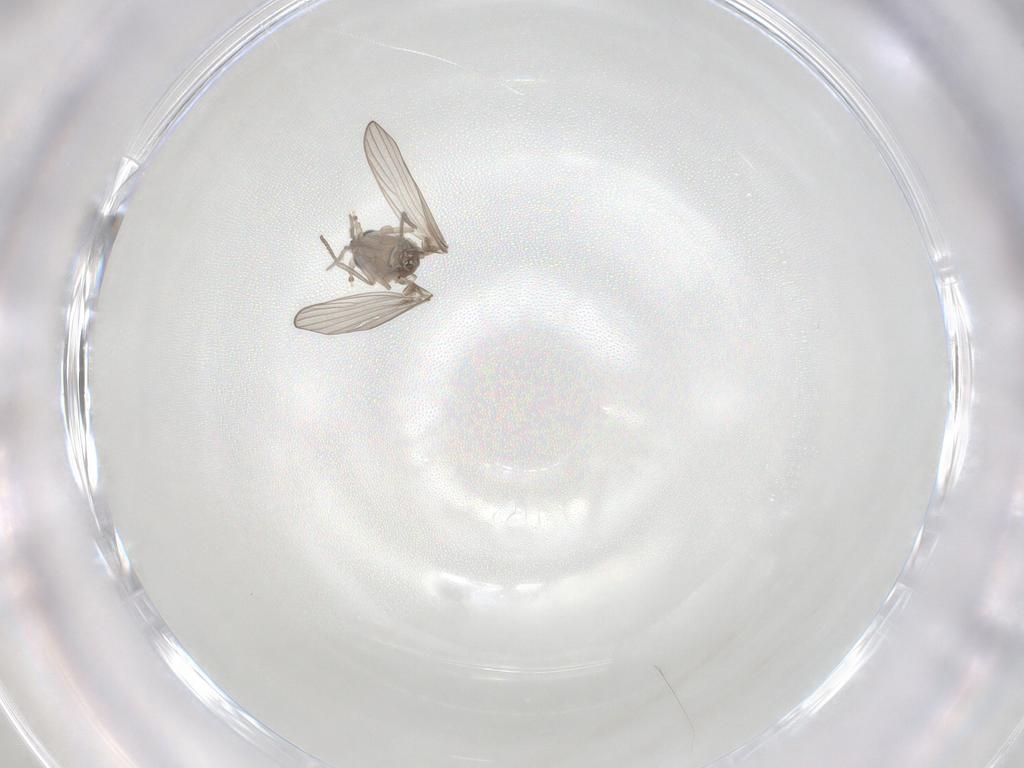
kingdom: Animalia
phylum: Arthropoda
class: Insecta
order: Diptera
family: Psychodidae
